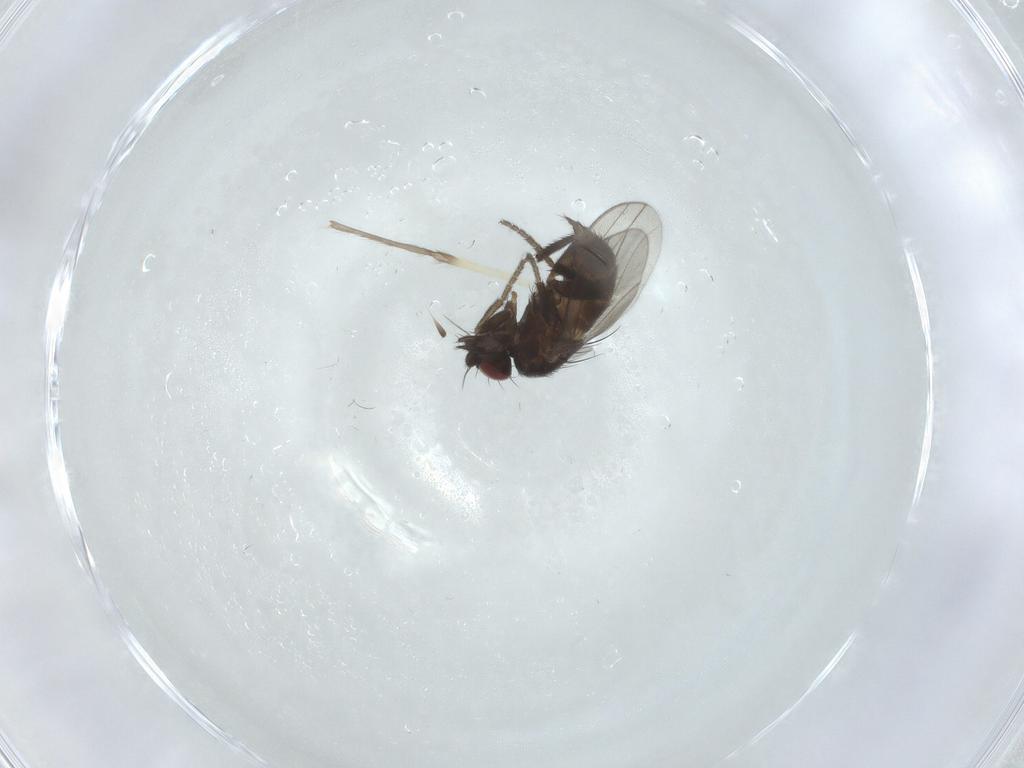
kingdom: Animalia
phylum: Arthropoda
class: Insecta
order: Diptera
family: Milichiidae
